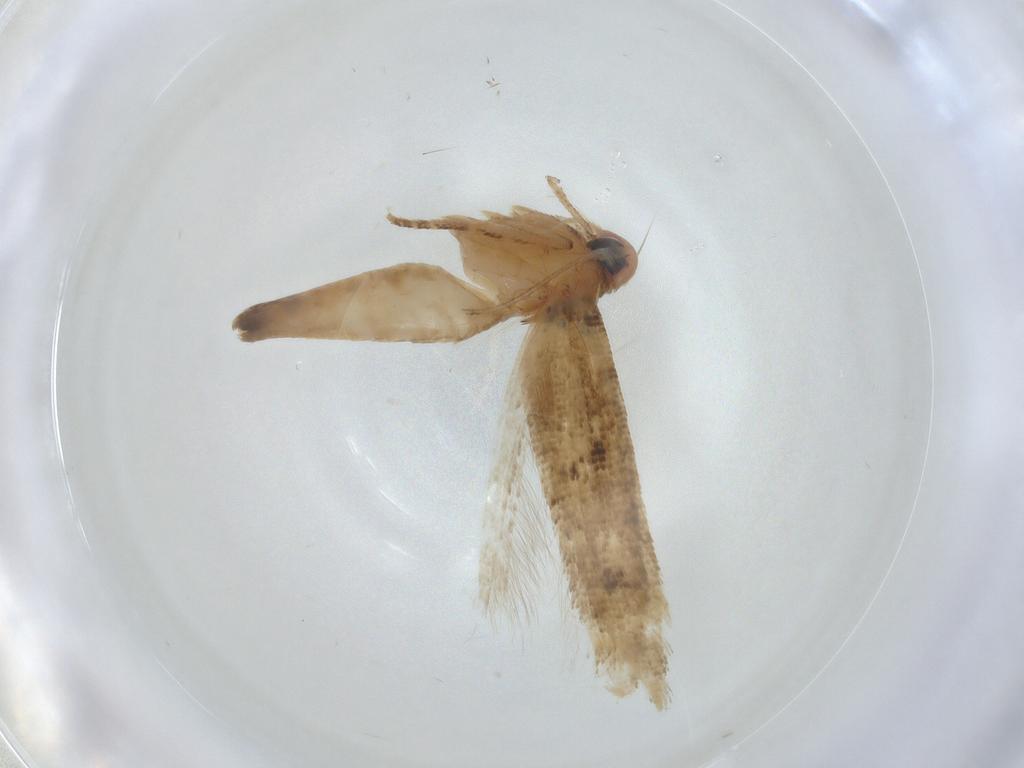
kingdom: Animalia
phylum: Arthropoda
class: Insecta
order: Lepidoptera
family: Cosmopterigidae
